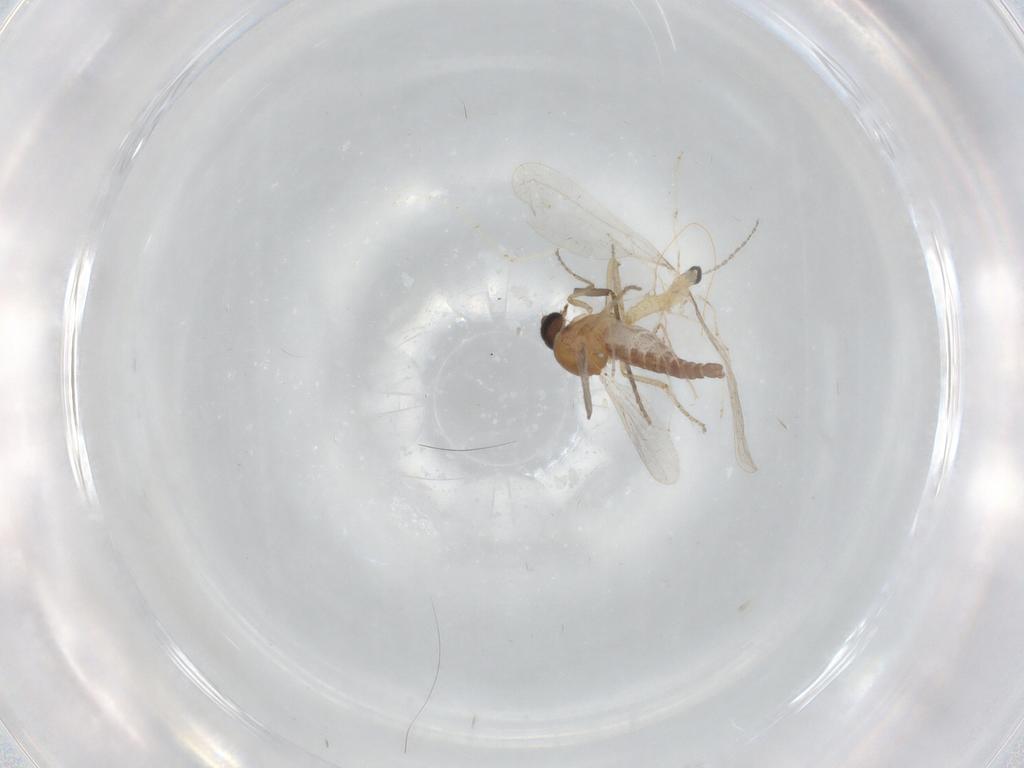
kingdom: Animalia
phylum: Arthropoda
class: Insecta
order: Diptera
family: Cecidomyiidae
